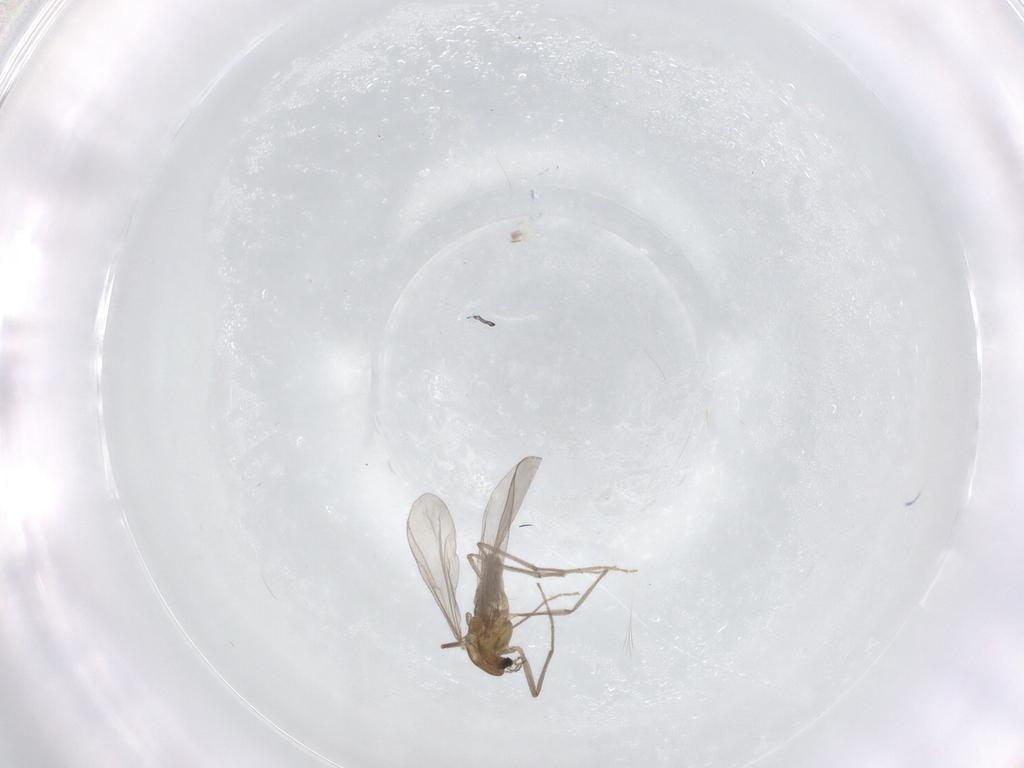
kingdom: Animalia
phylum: Arthropoda
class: Insecta
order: Diptera
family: Chironomidae
